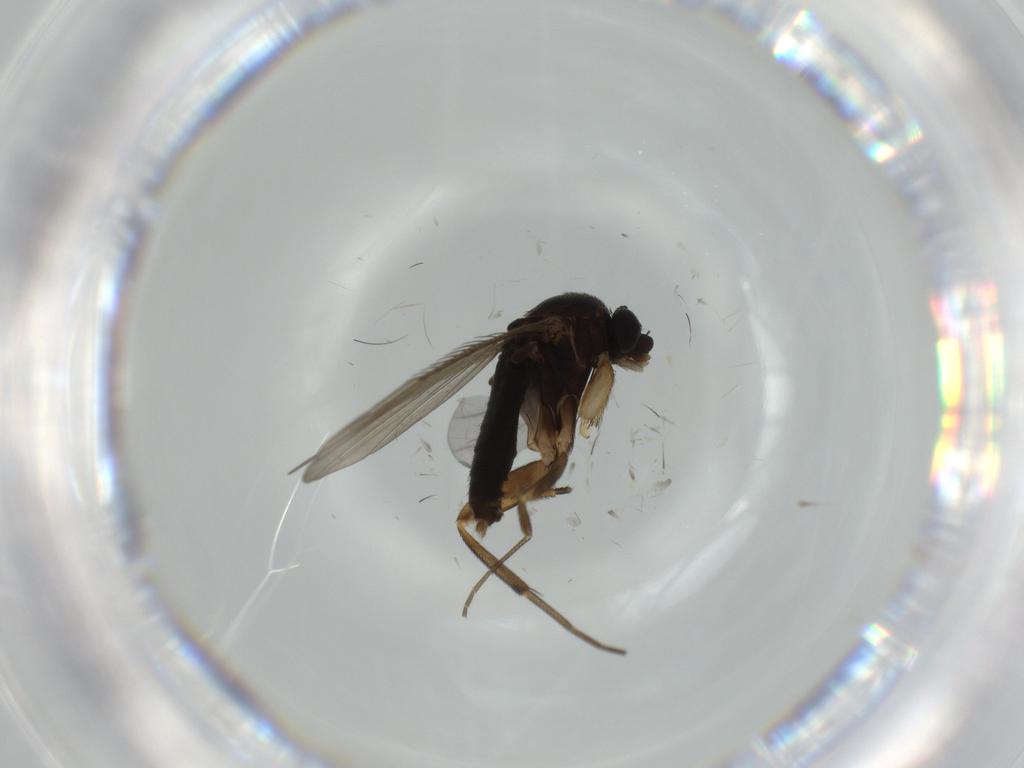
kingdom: Animalia
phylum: Arthropoda
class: Insecta
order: Diptera
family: Phoridae
